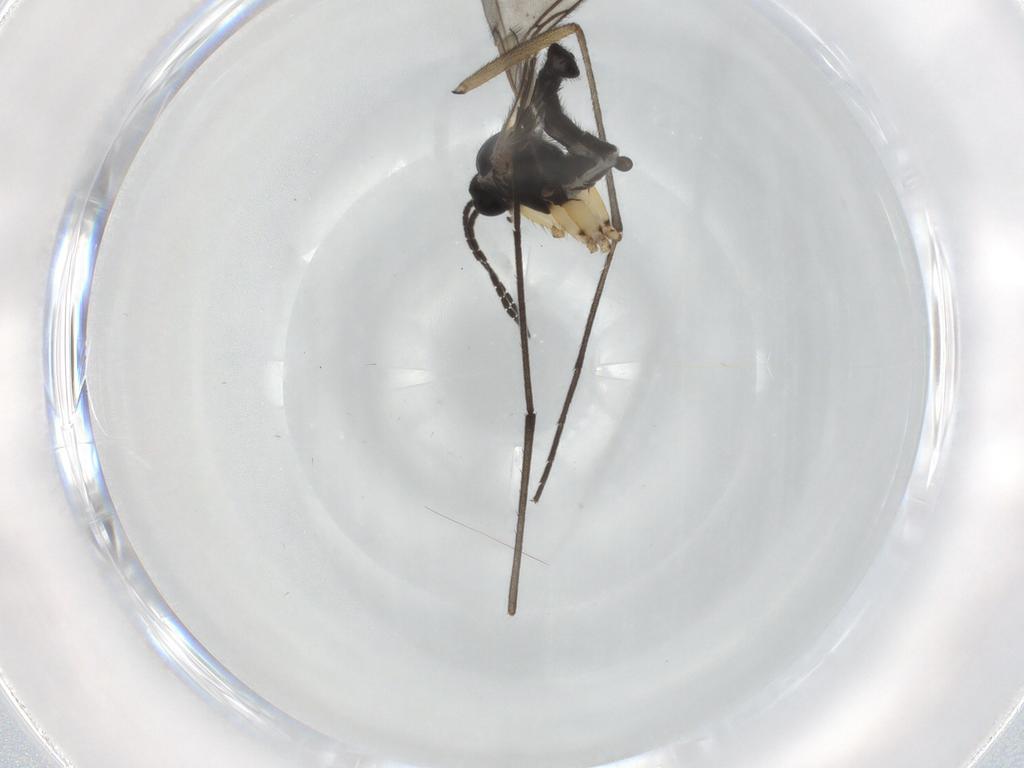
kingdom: Animalia
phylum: Arthropoda
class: Insecta
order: Diptera
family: Sciaridae
